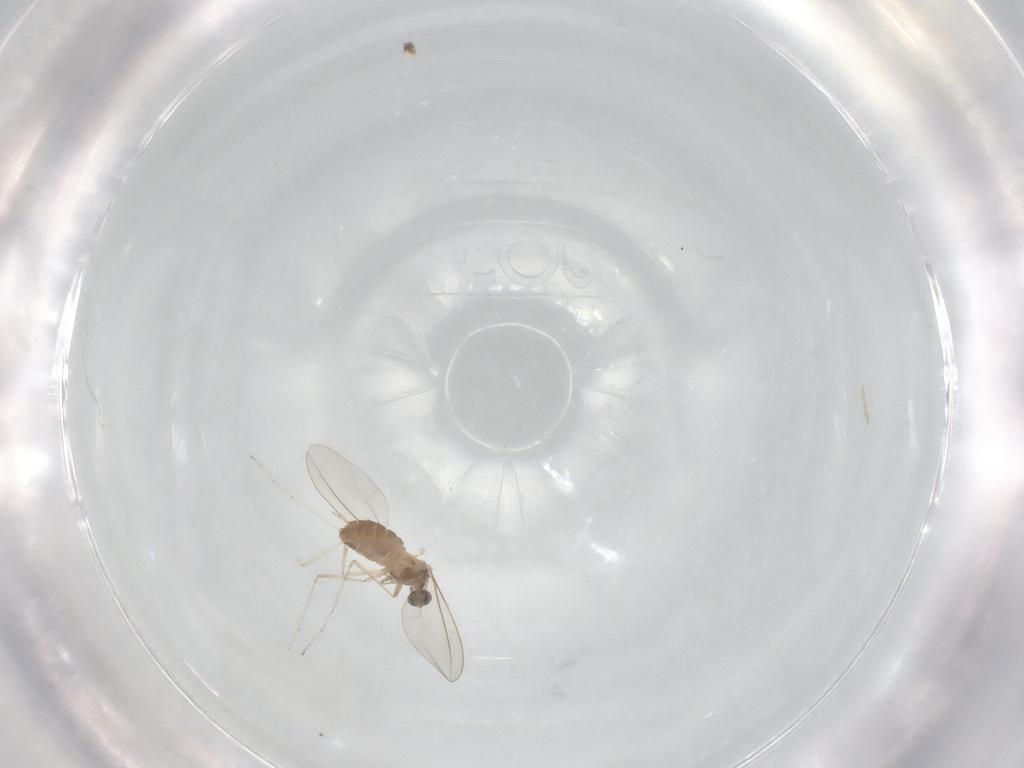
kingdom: Animalia
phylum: Arthropoda
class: Insecta
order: Diptera
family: Cecidomyiidae
